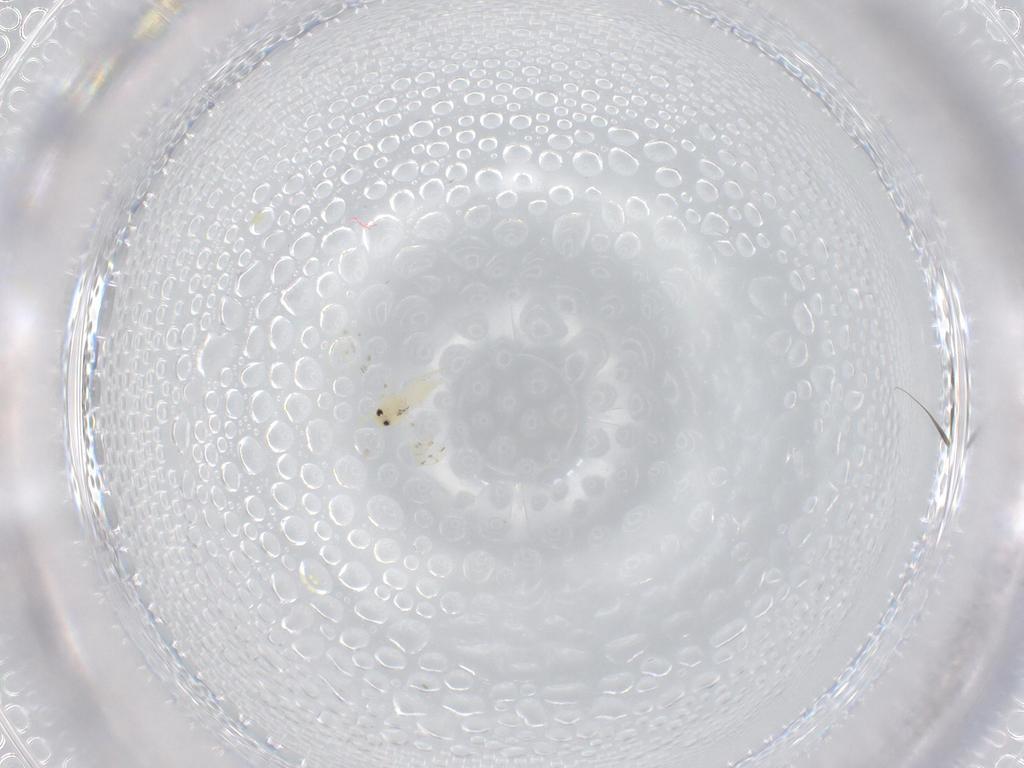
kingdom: Animalia
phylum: Arthropoda
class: Insecta
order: Hemiptera
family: Aleyrodidae
